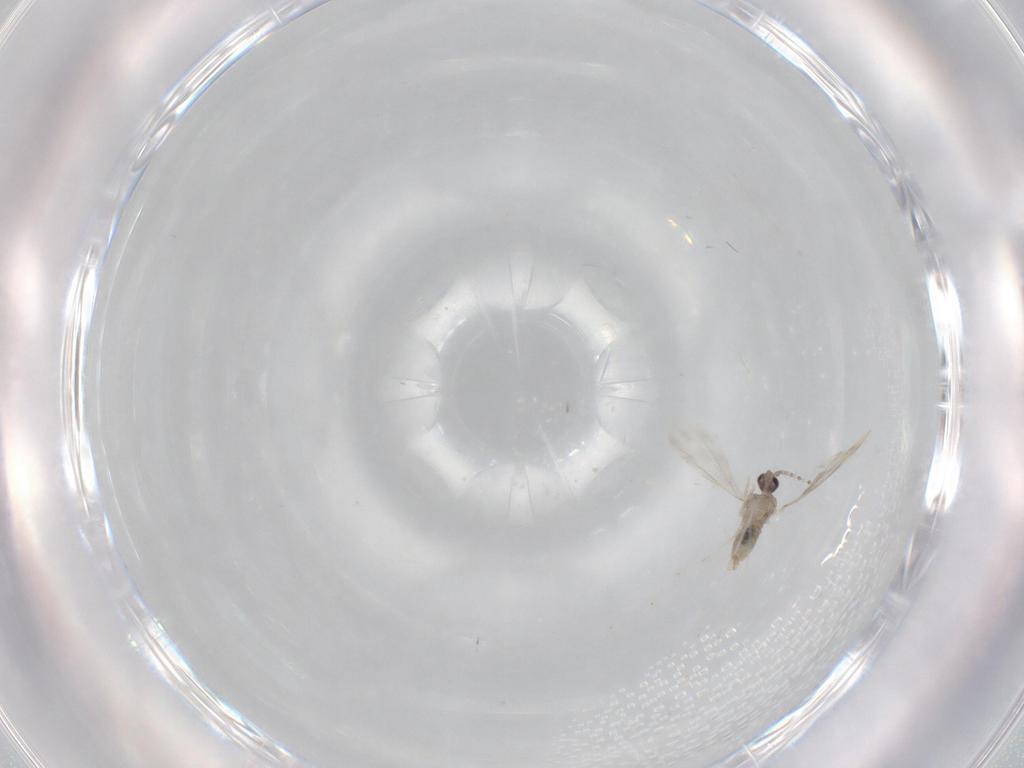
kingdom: Animalia
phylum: Arthropoda
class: Insecta
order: Diptera
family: Cecidomyiidae
